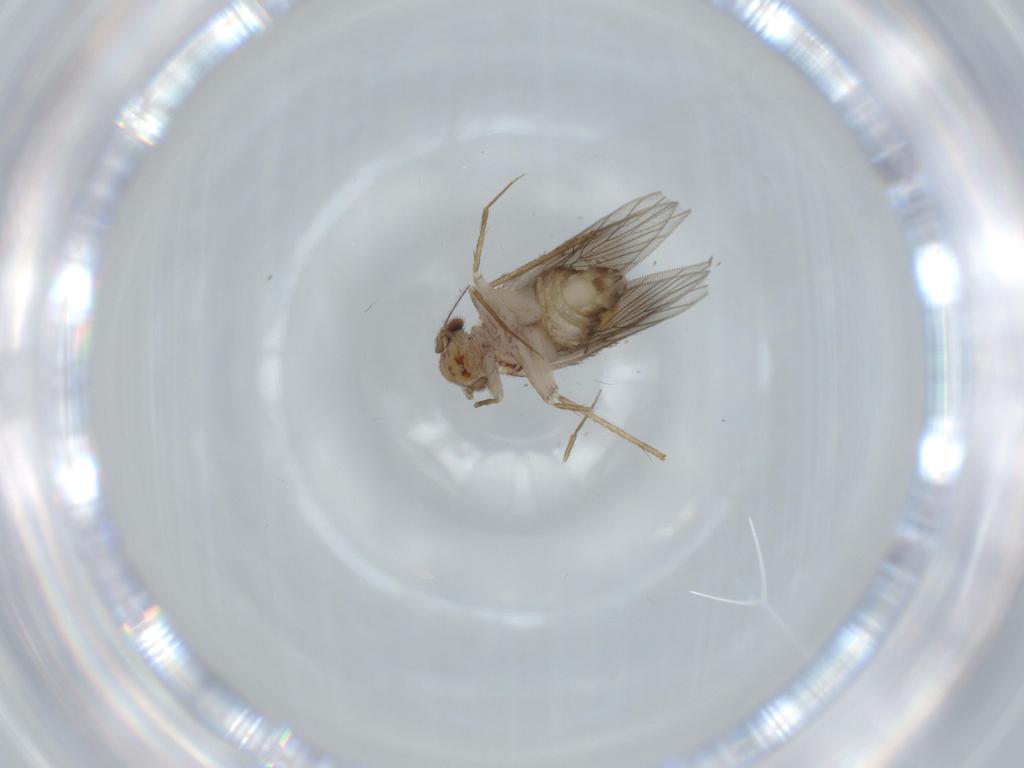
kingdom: Animalia
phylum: Arthropoda
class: Insecta
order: Psocodea
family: Lepidopsocidae
